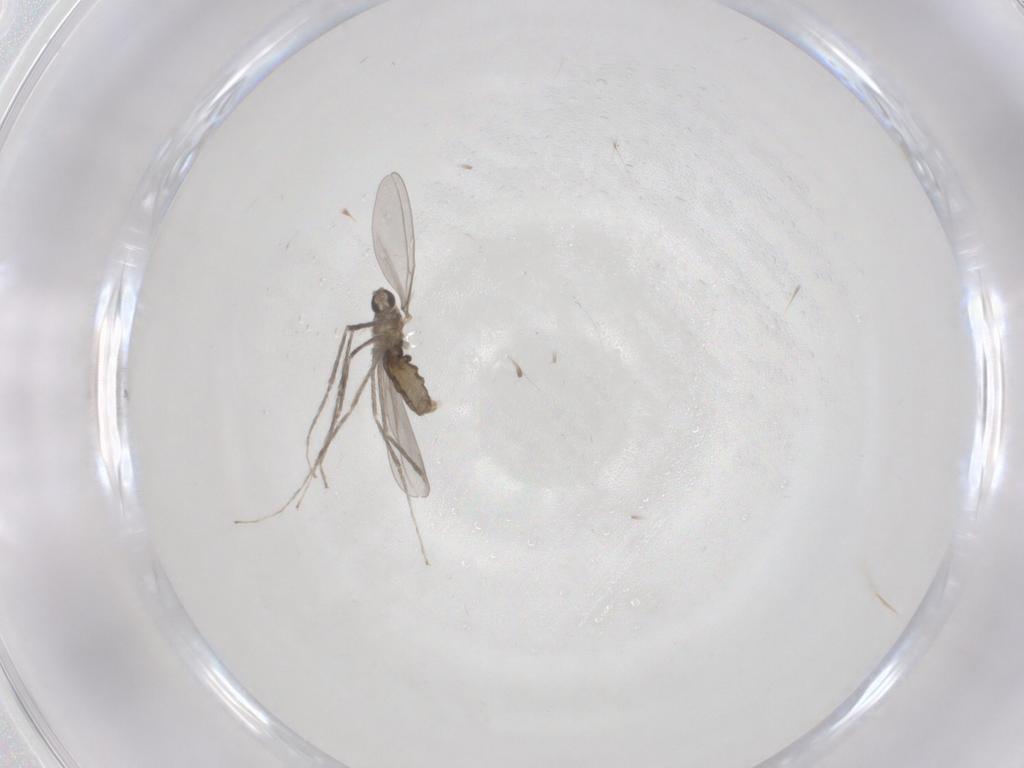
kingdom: Animalia
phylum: Arthropoda
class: Insecta
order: Diptera
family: Cecidomyiidae
